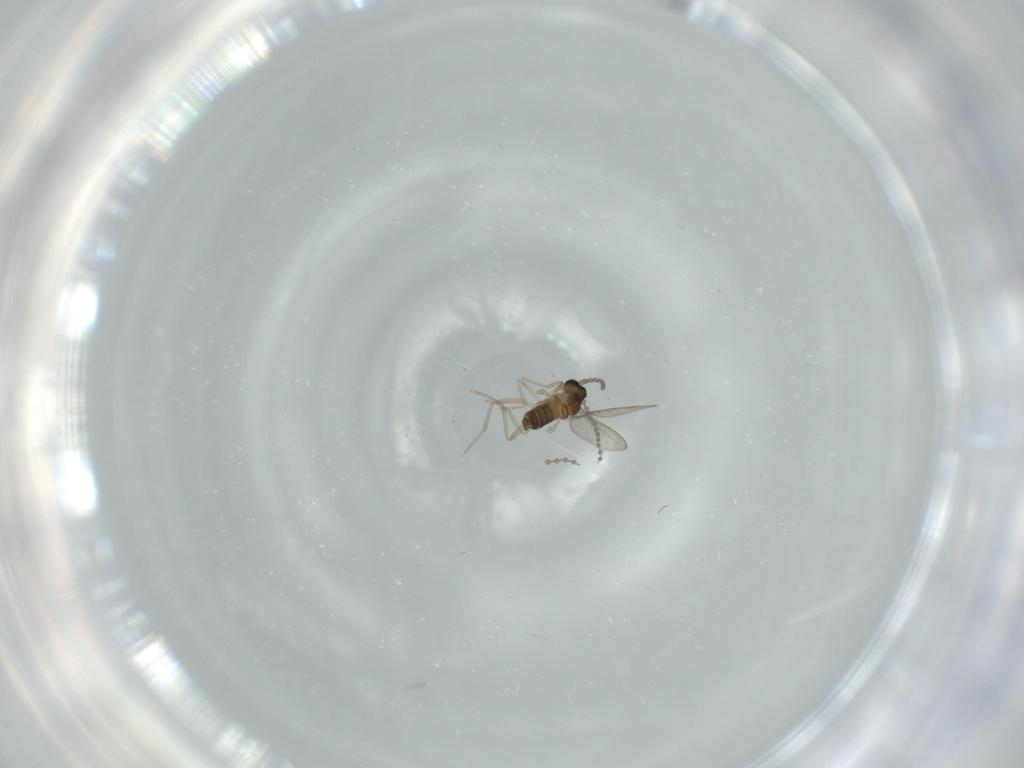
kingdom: Animalia
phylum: Arthropoda
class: Insecta
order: Diptera
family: Cecidomyiidae
